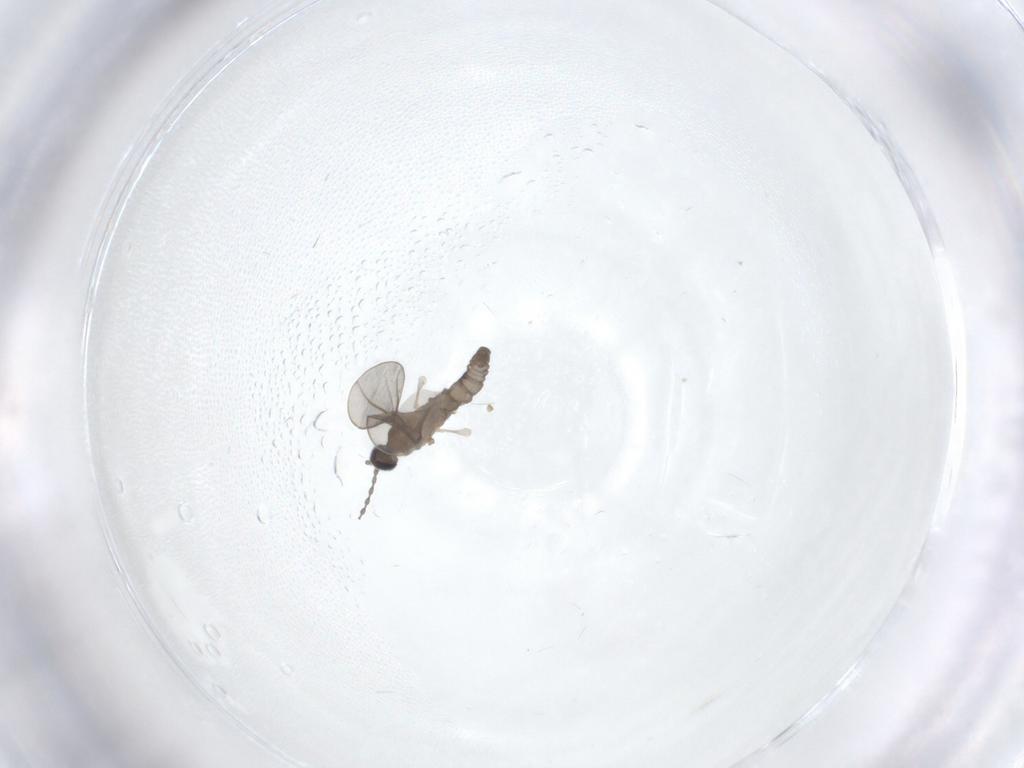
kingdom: Animalia
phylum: Arthropoda
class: Insecta
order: Diptera
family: Cecidomyiidae
